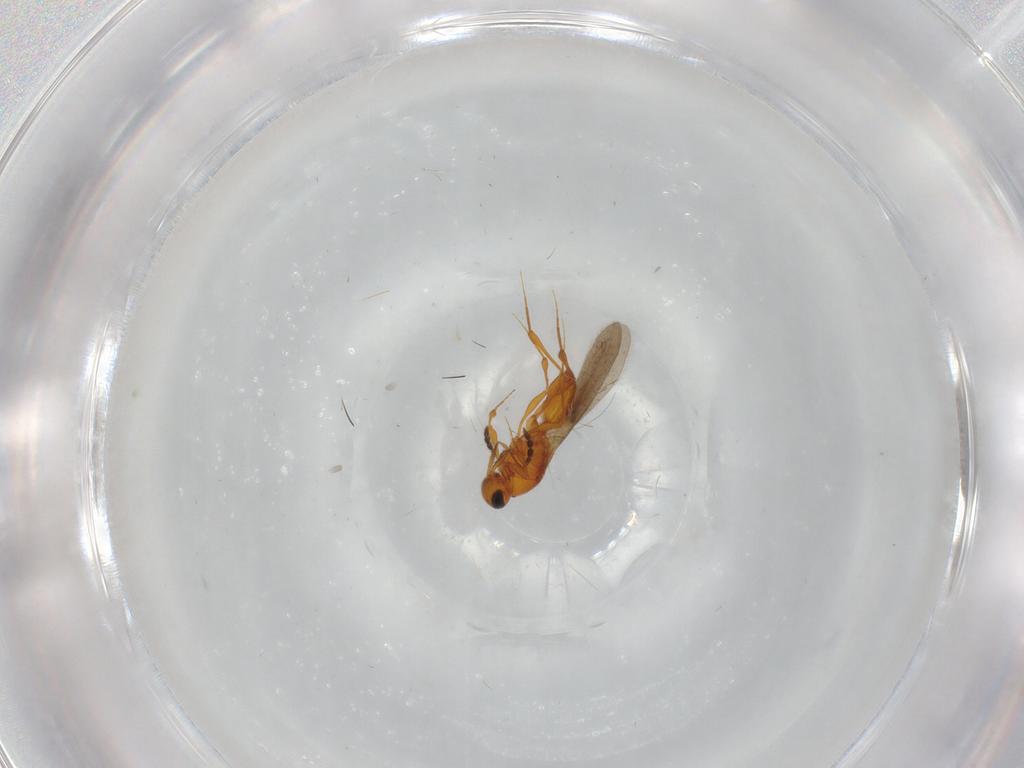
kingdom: Animalia
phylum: Arthropoda
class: Insecta
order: Hymenoptera
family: Platygastridae
